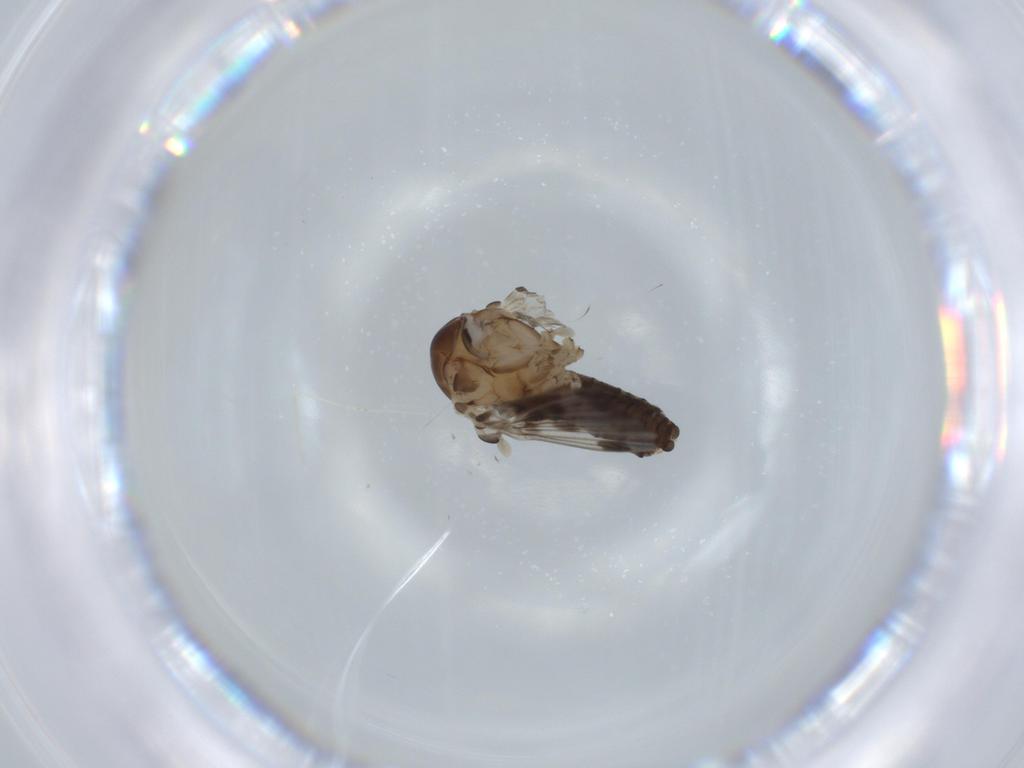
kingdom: Animalia
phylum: Arthropoda
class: Insecta
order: Diptera
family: Psychodidae
